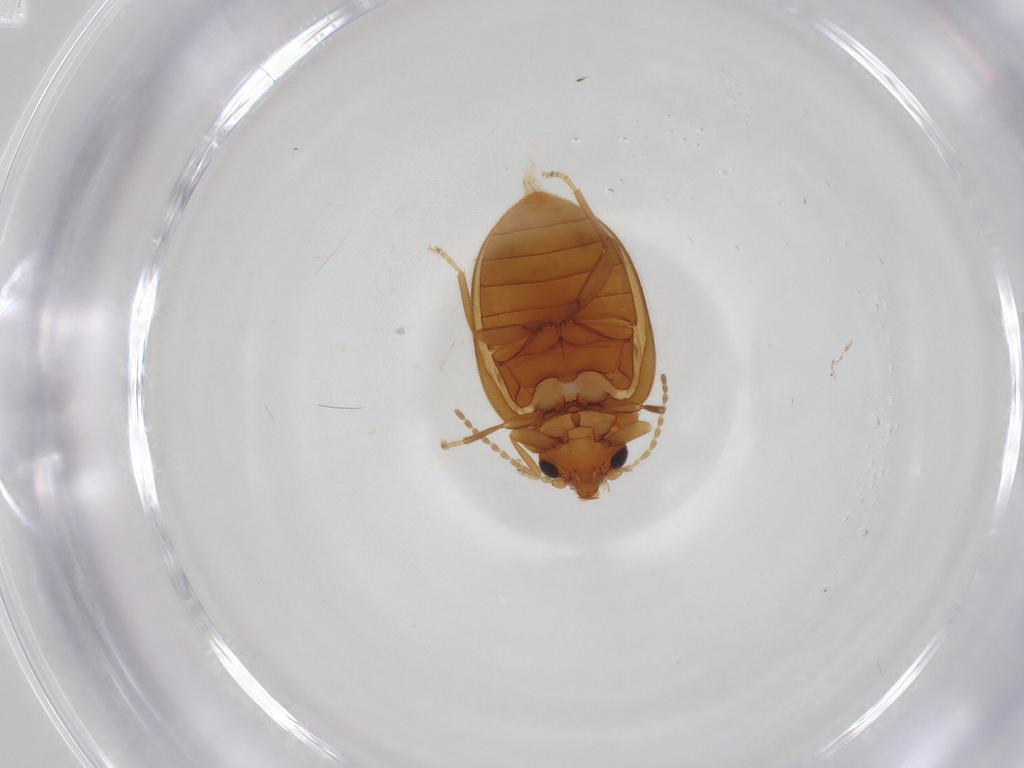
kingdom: Animalia
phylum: Arthropoda
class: Insecta
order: Coleoptera
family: Scirtidae
